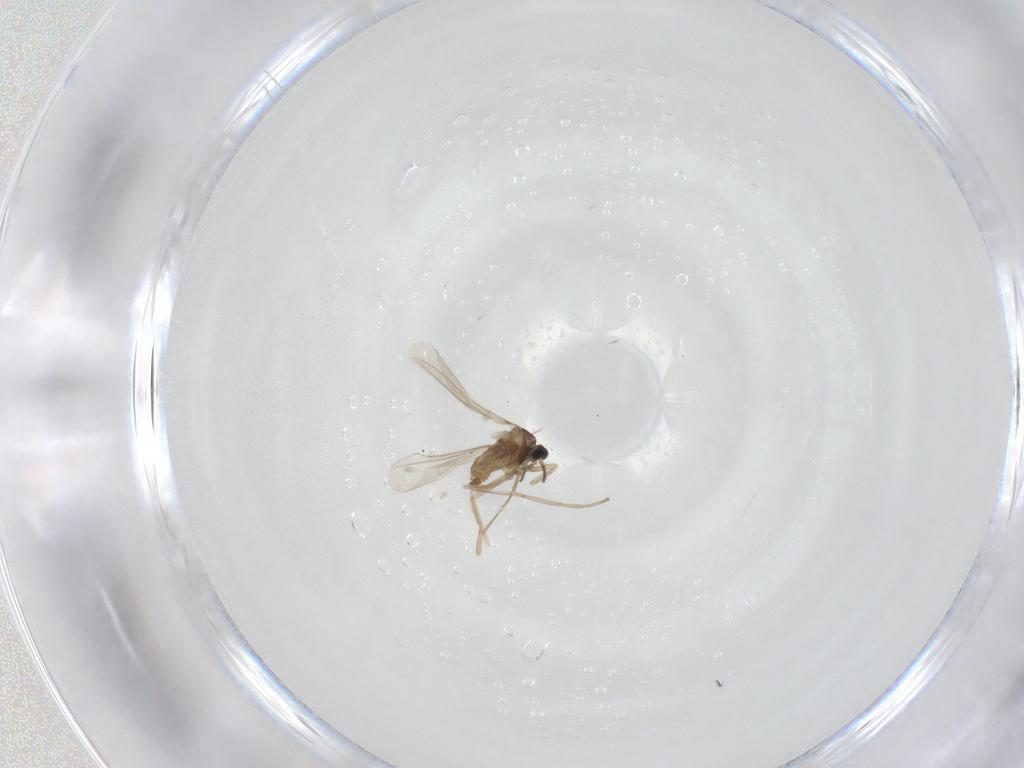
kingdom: Animalia
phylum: Arthropoda
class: Insecta
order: Diptera
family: Cecidomyiidae
